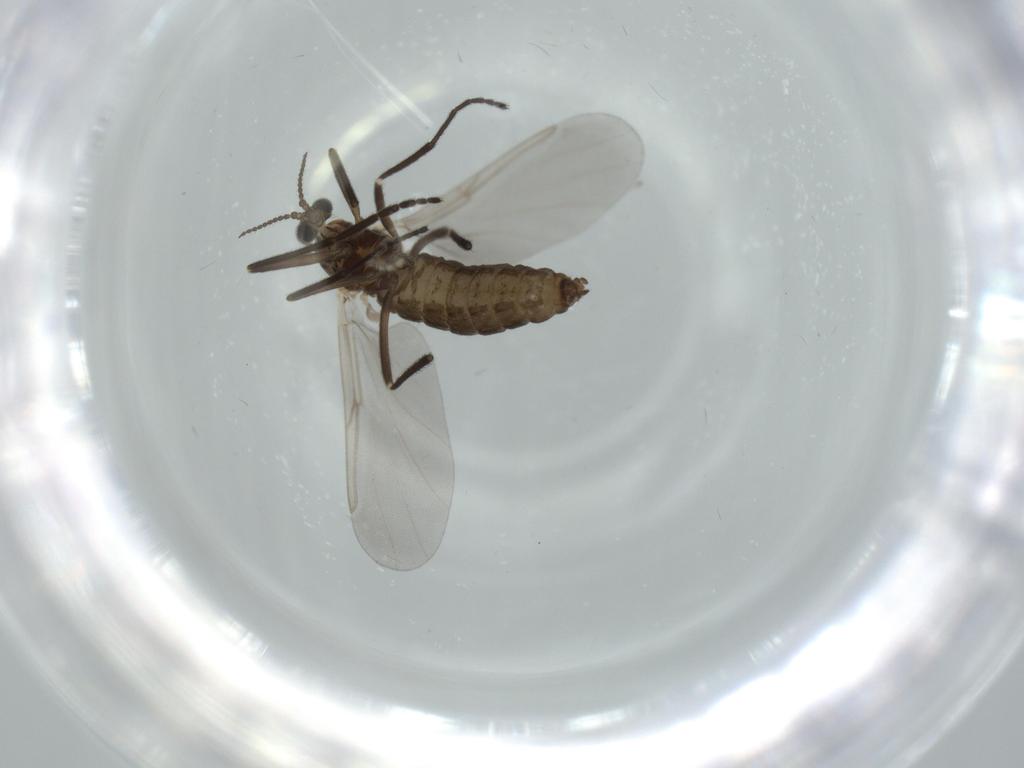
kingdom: Animalia
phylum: Arthropoda
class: Insecta
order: Diptera
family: Cecidomyiidae
